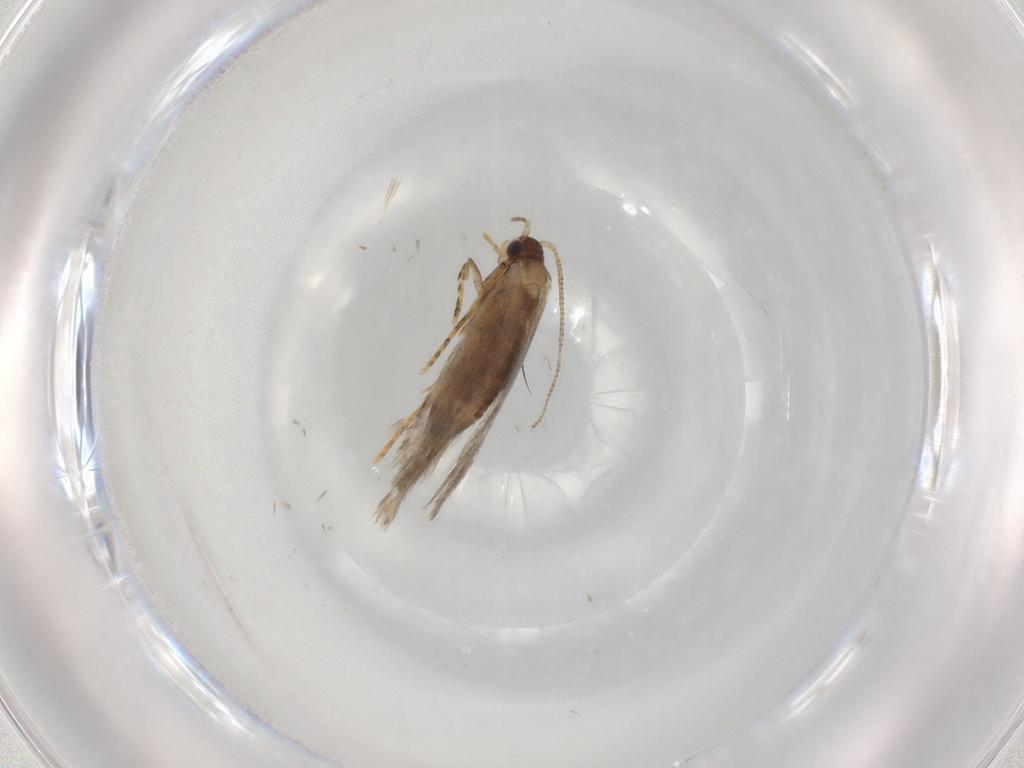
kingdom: Animalia
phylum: Arthropoda
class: Insecta
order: Lepidoptera
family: Tineidae
